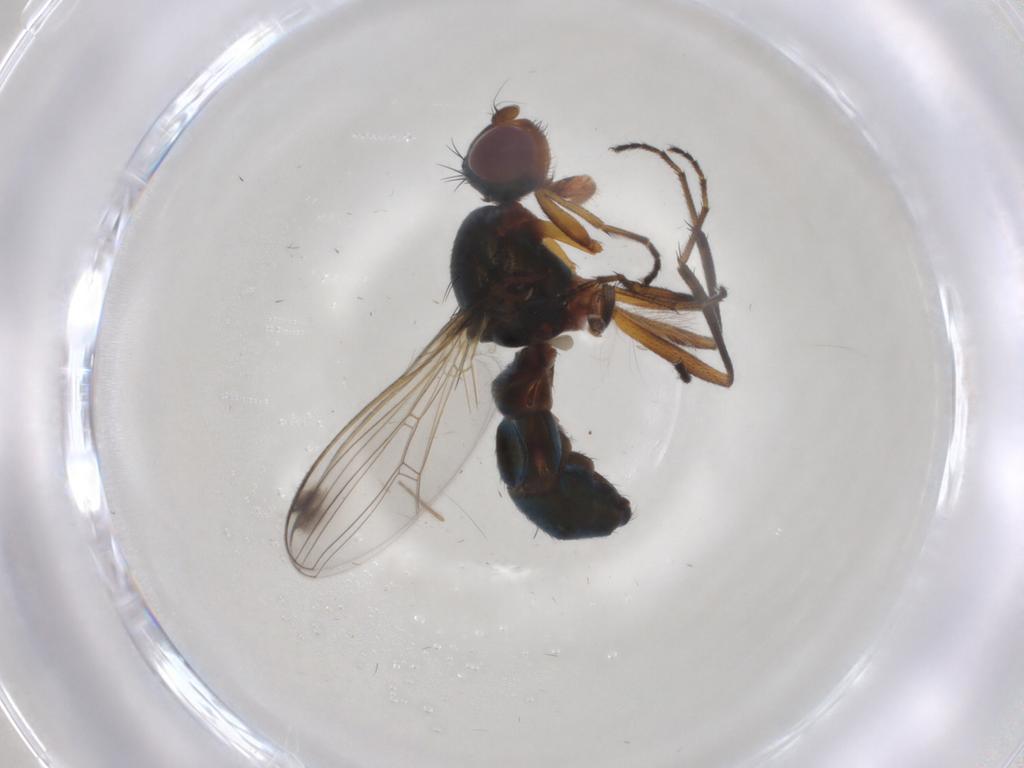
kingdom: Animalia
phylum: Arthropoda
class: Insecta
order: Diptera
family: Sepsidae
